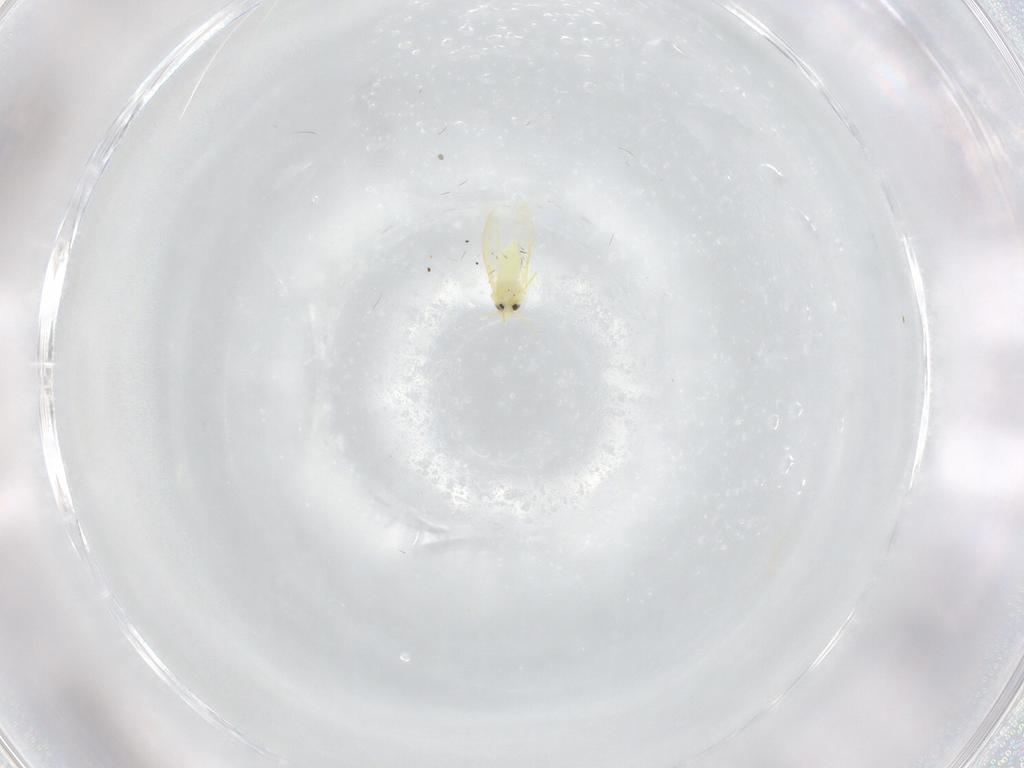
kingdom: Animalia
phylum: Arthropoda
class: Insecta
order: Hemiptera
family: Aleyrodidae
